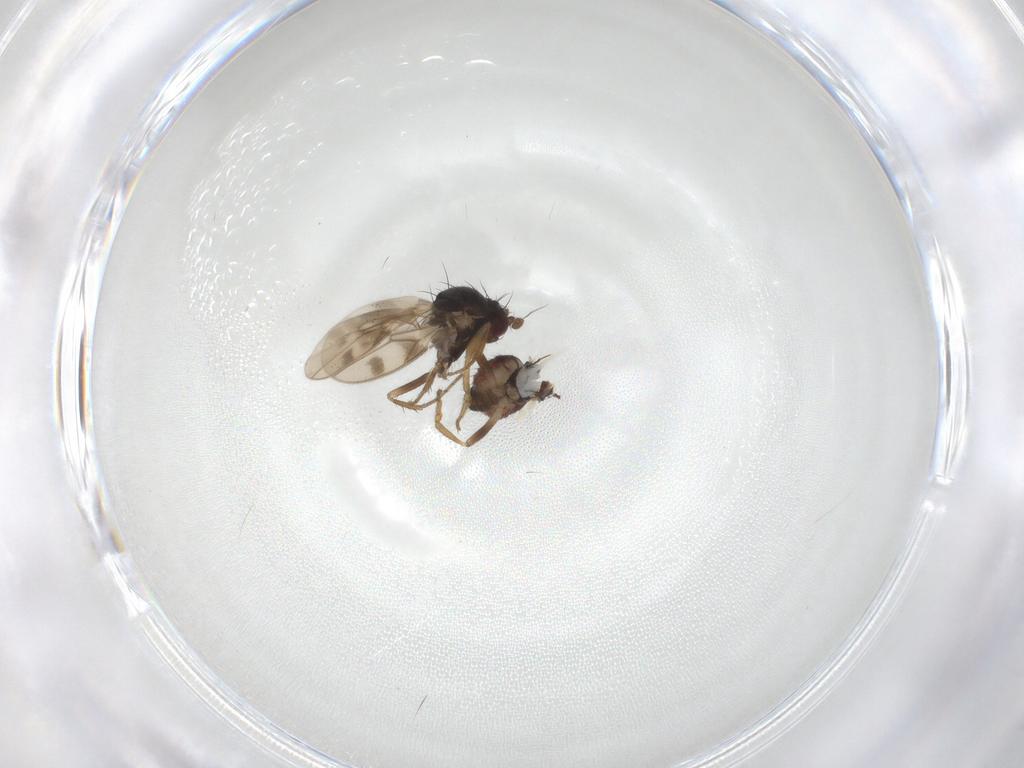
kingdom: Animalia
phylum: Arthropoda
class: Insecta
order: Diptera
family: Sphaeroceridae
